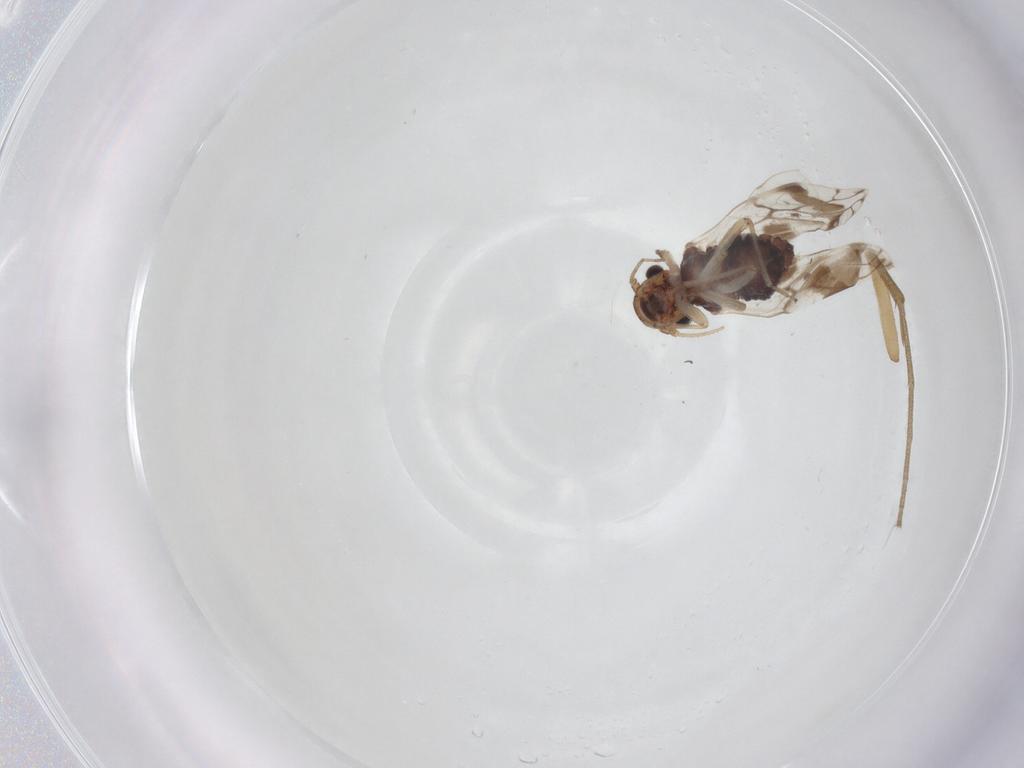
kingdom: Animalia
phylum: Arthropoda
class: Insecta
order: Psocodea
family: Pseudocaeciliidae
